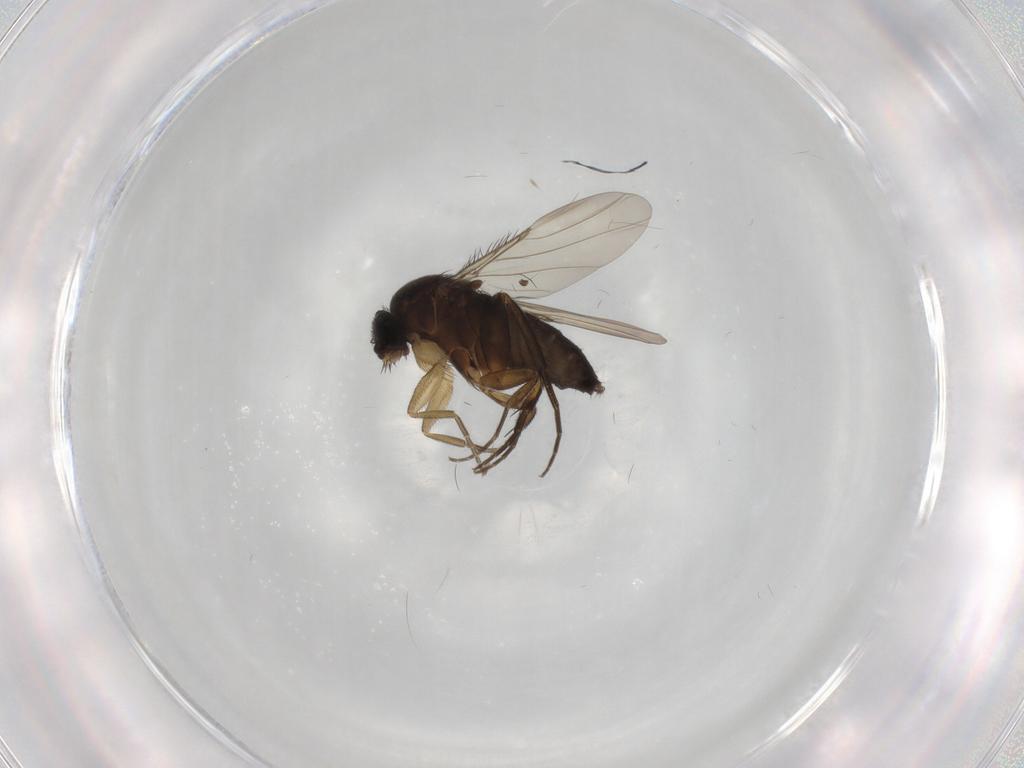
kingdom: Animalia
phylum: Arthropoda
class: Insecta
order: Diptera
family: Phoridae
